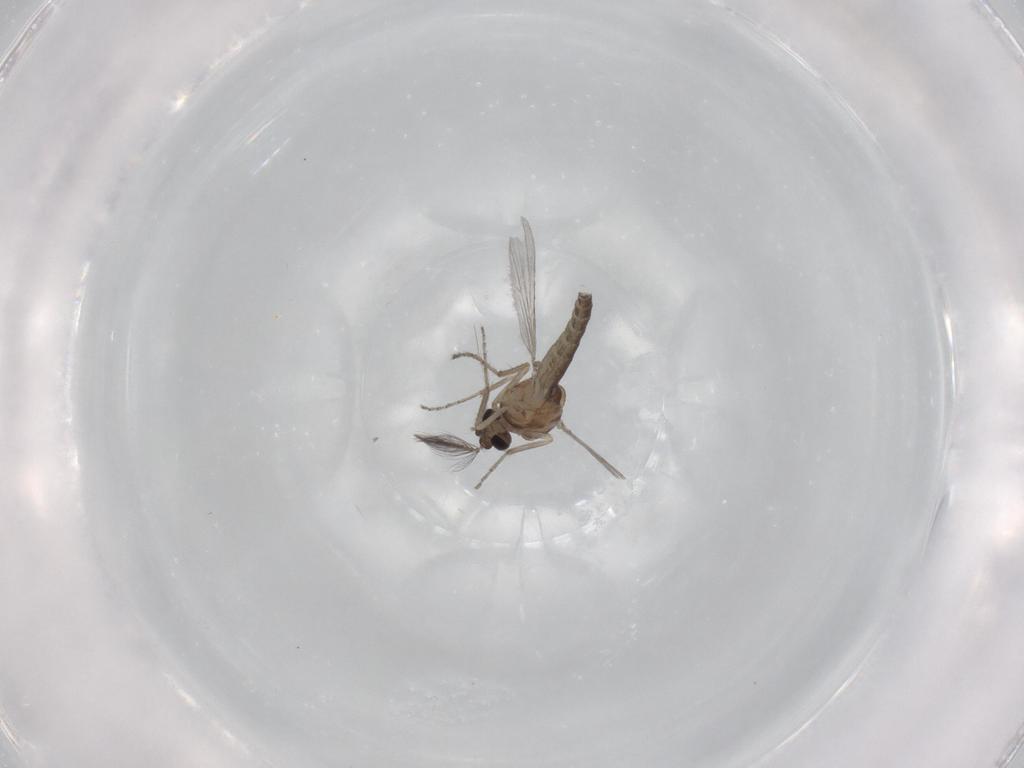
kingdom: Animalia
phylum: Arthropoda
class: Insecta
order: Diptera
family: Ceratopogonidae
